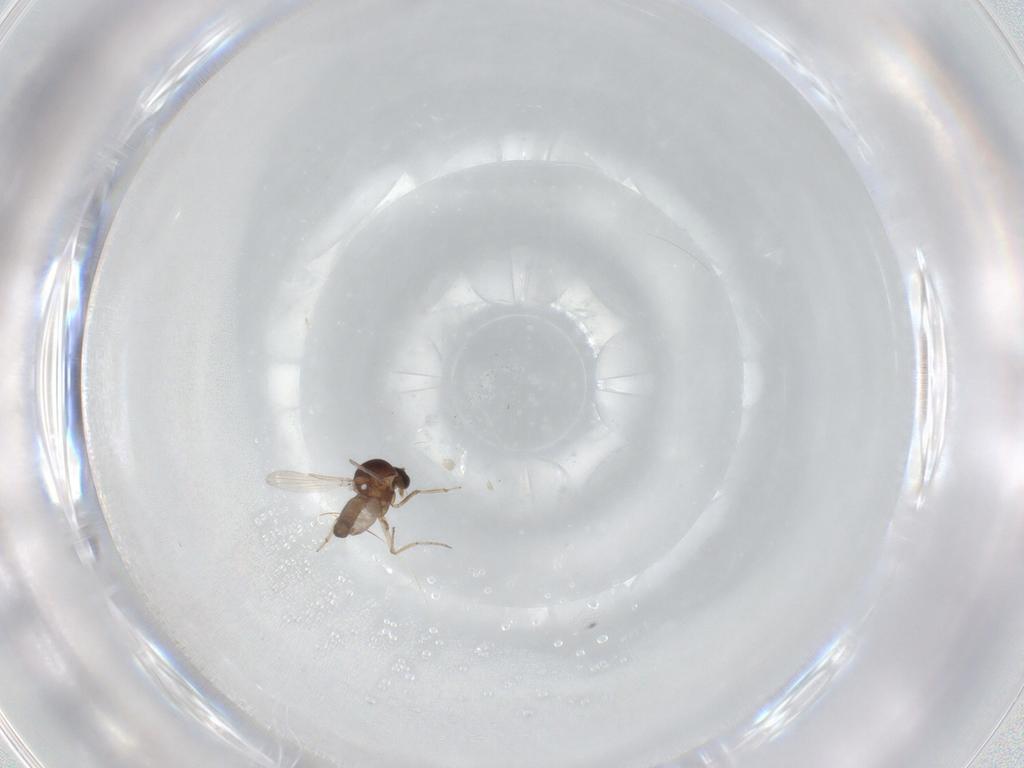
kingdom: Animalia
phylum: Arthropoda
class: Insecta
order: Diptera
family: Ceratopogonidae
